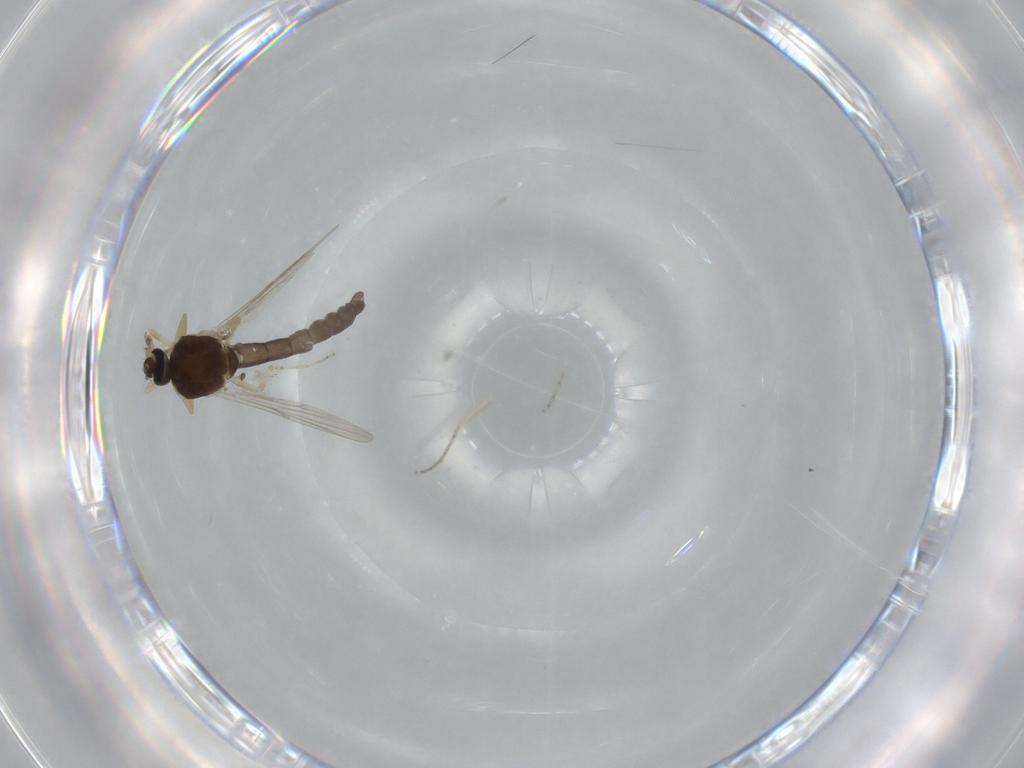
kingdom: Animalia
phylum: Arthropoda
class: Insecta
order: Diptera
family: Ceratopogonidae
